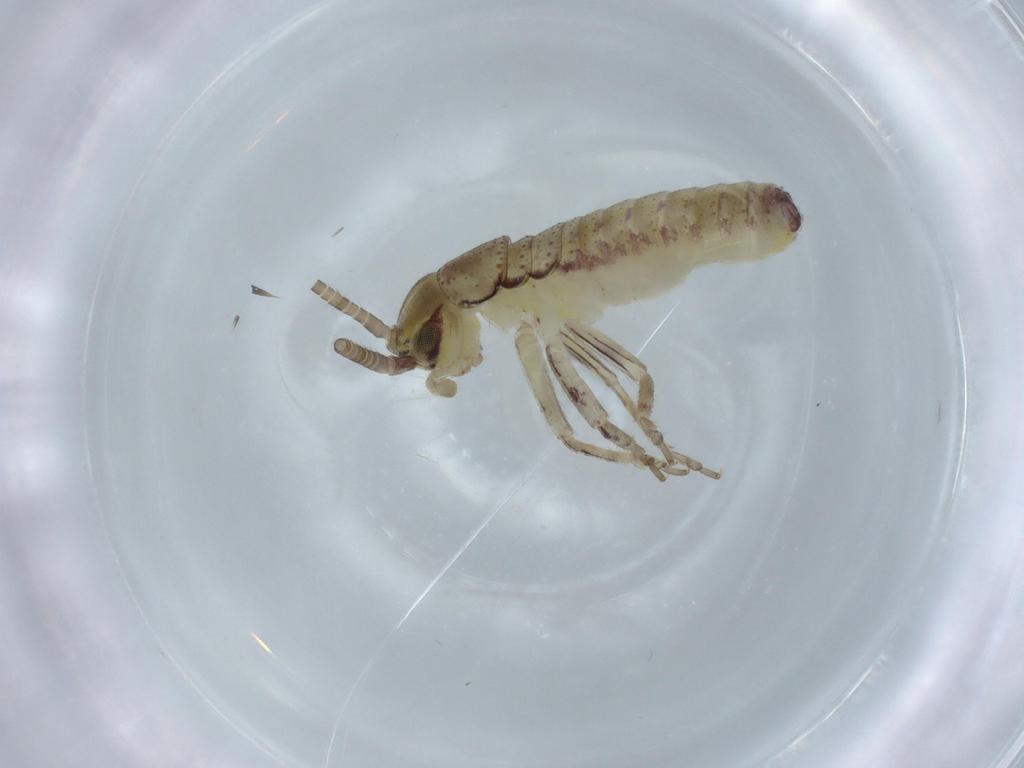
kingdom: Animalia
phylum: Arthropoda
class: Insecta
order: Orthoptera
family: Gryllidae
